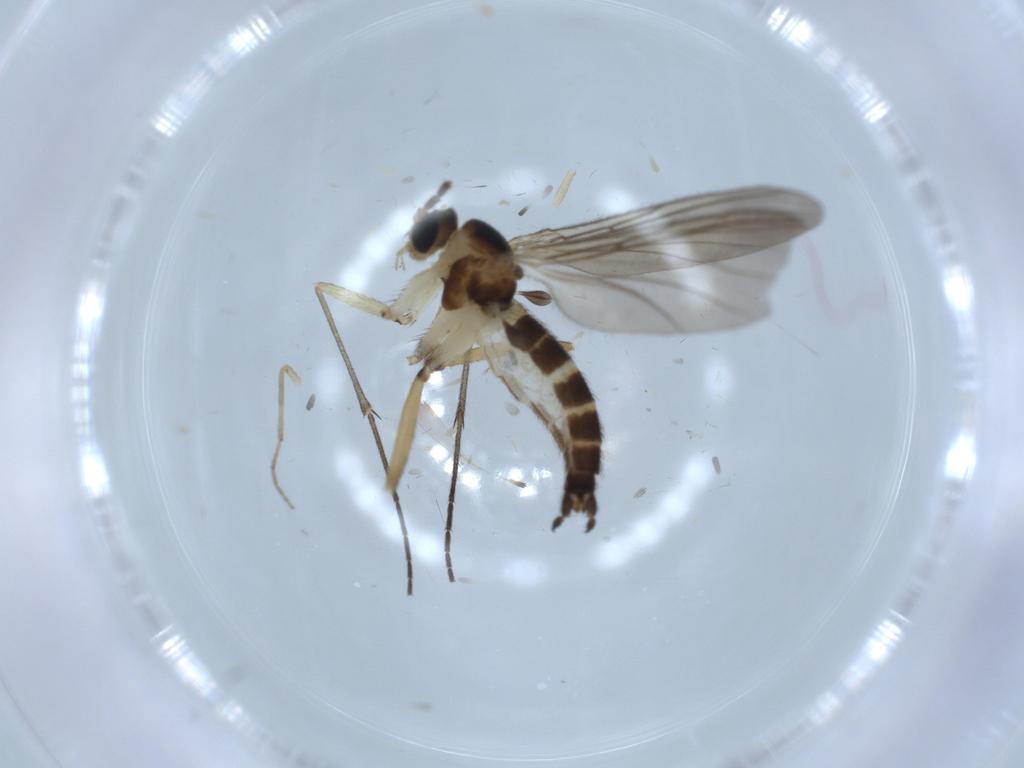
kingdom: Animalia
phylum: Arthropoda
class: Insecta
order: Diptera
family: Sciaridae
